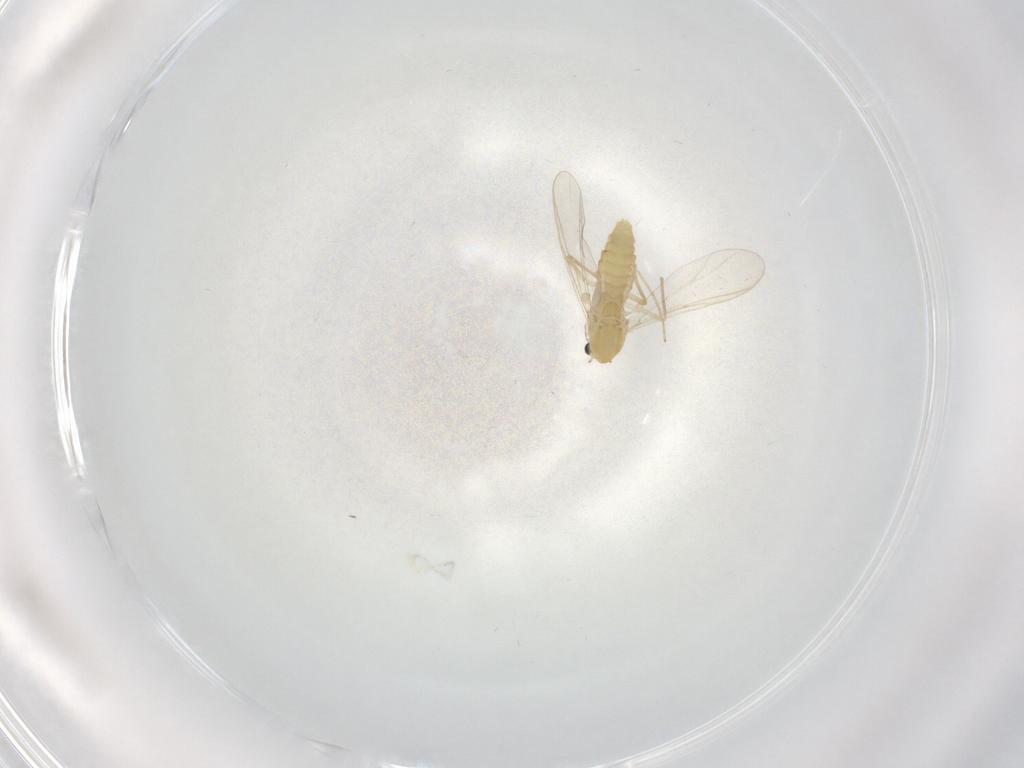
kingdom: Animalia
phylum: Arthropoda
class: Insecta
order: Diptera
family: Chironomidae
